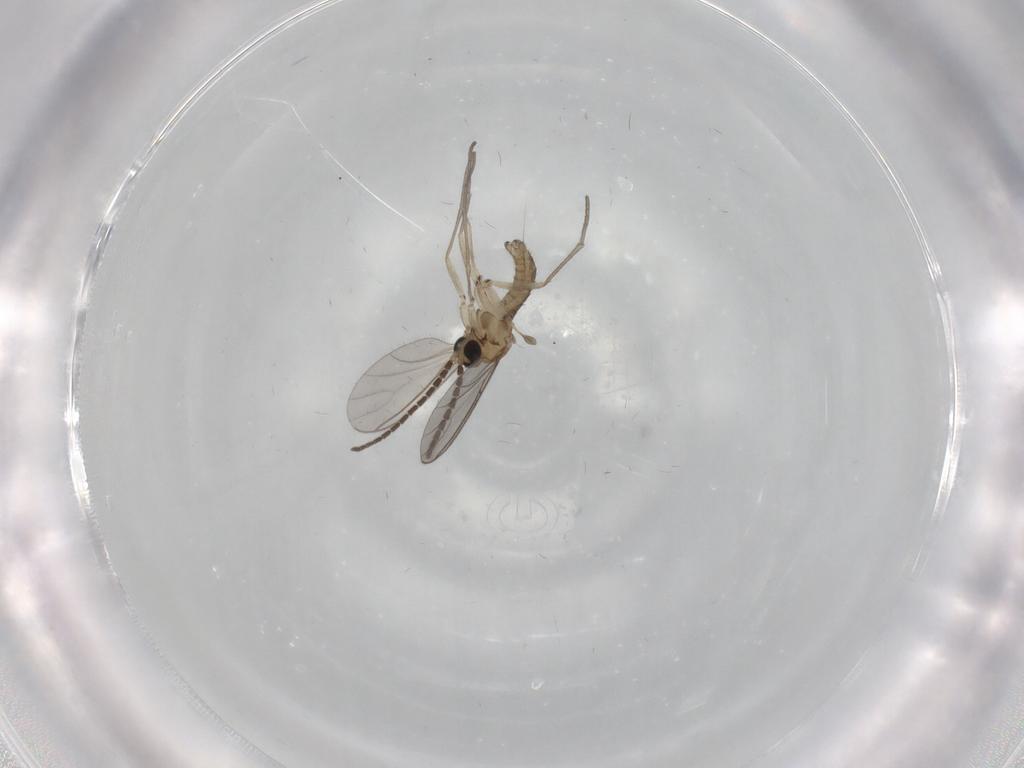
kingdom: Animalia
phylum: Arthropoda
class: Insecta
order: Diptera
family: Sciaridae
